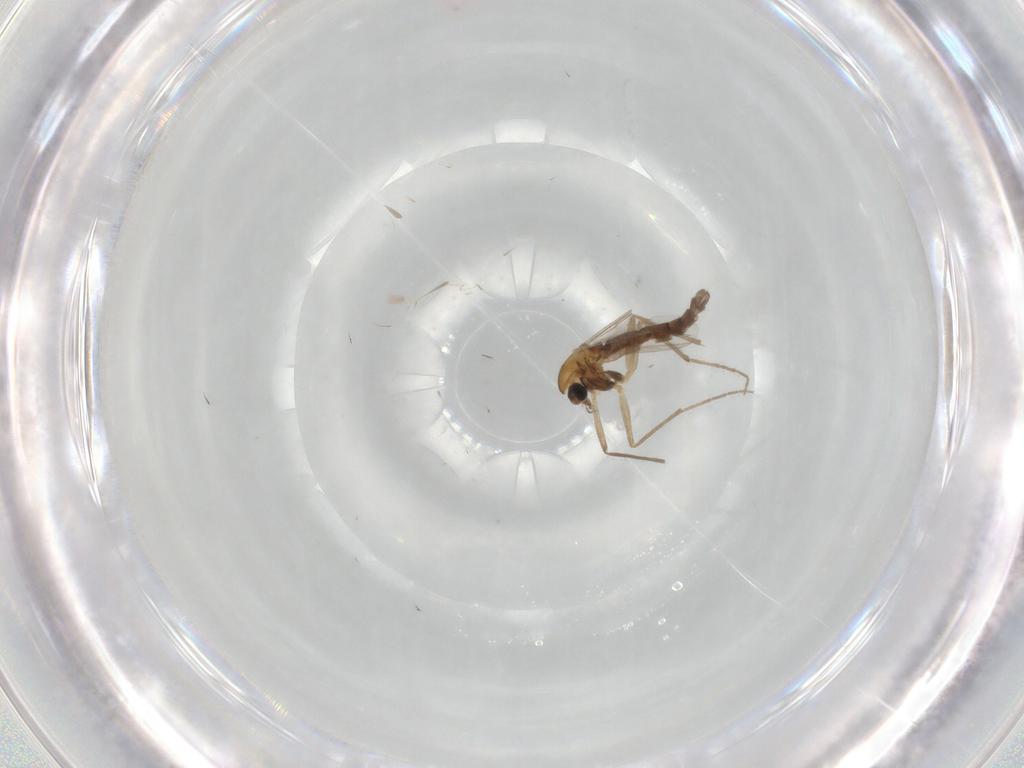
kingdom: Animalia
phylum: Arthropoda
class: Insecta
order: Diptera
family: Chironomidae
